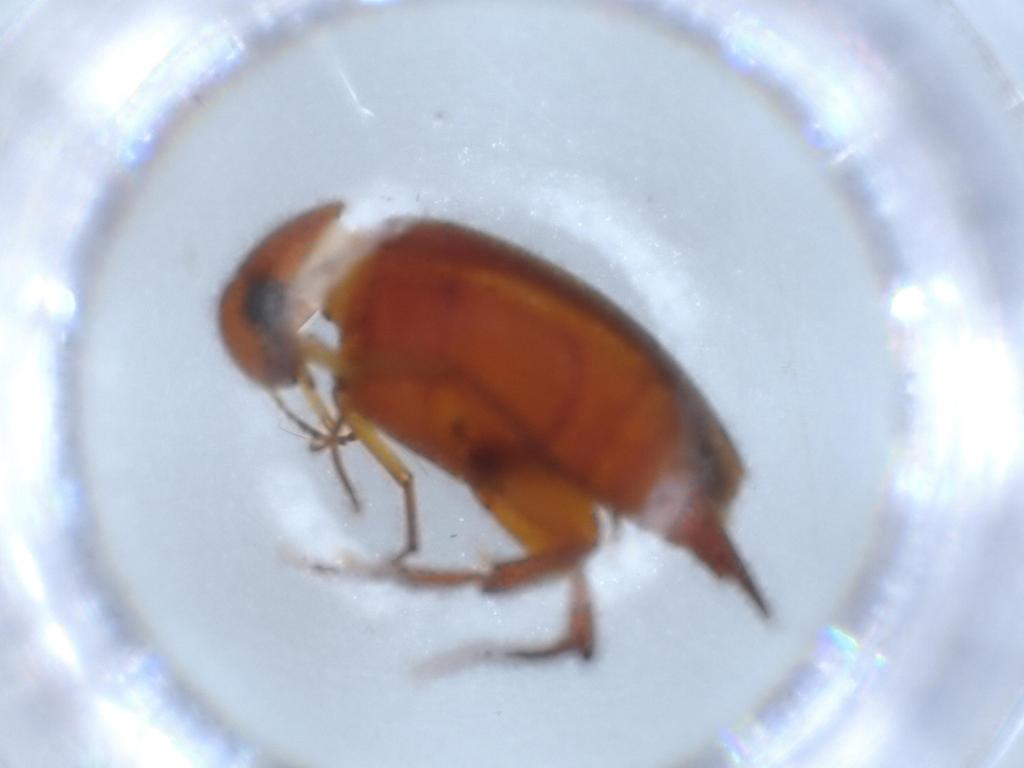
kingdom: Animalia
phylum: Arthropoda
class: Insecta
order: Coleoptera
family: Mordellidae
